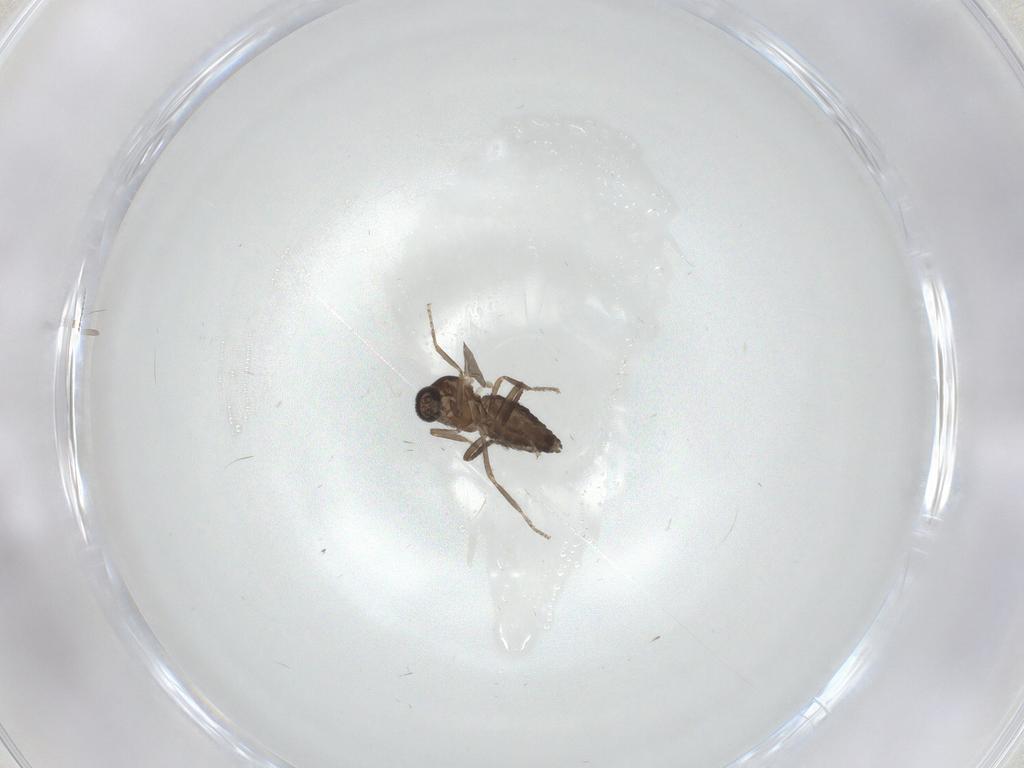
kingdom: Animalia
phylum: Arthropoda
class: Insecta
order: Diptera
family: Ceratopogonidae
